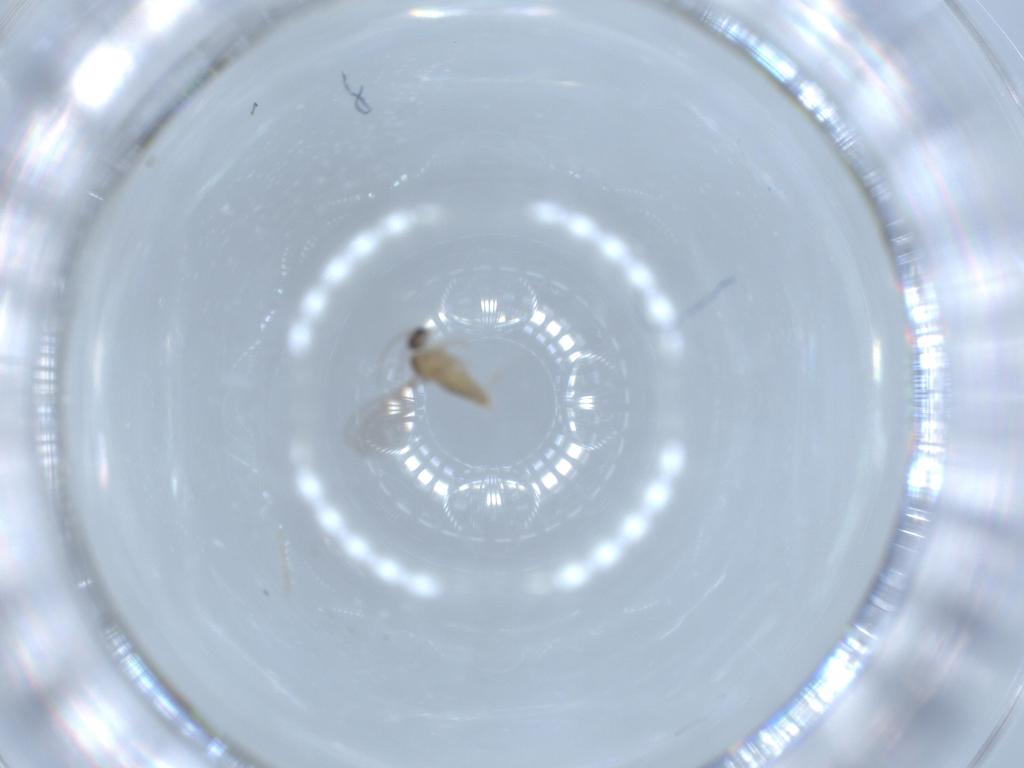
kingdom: Animalia
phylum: Arthropoda
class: Insecta
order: Diptera
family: Cecidomyiidae
